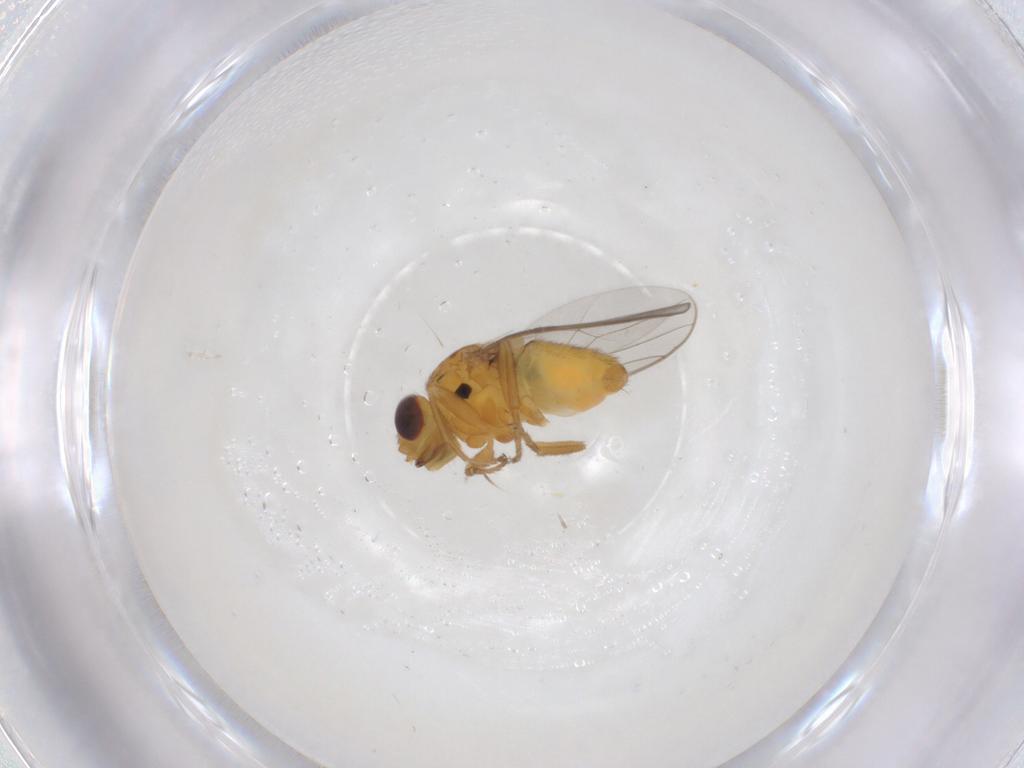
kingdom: Animalia
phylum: Arthropoda
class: Insecta
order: Diptera
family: Chloropidae
